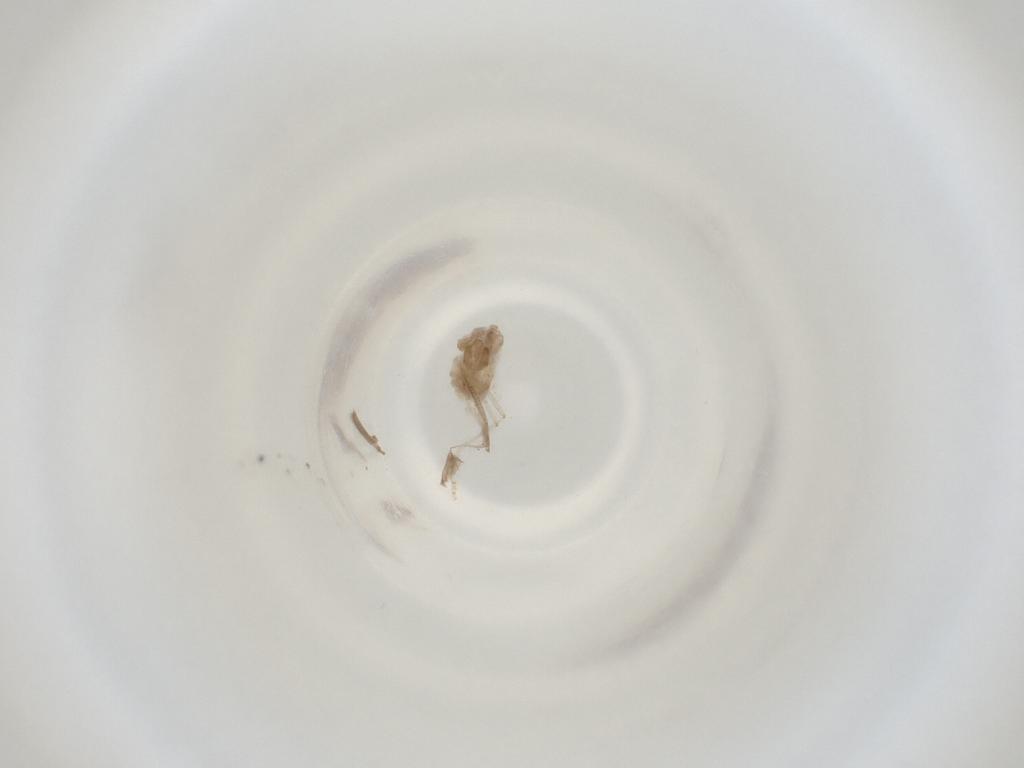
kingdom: Animalia
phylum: Arthropoda
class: Insecta
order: Diptera
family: Cecidomyiidae
